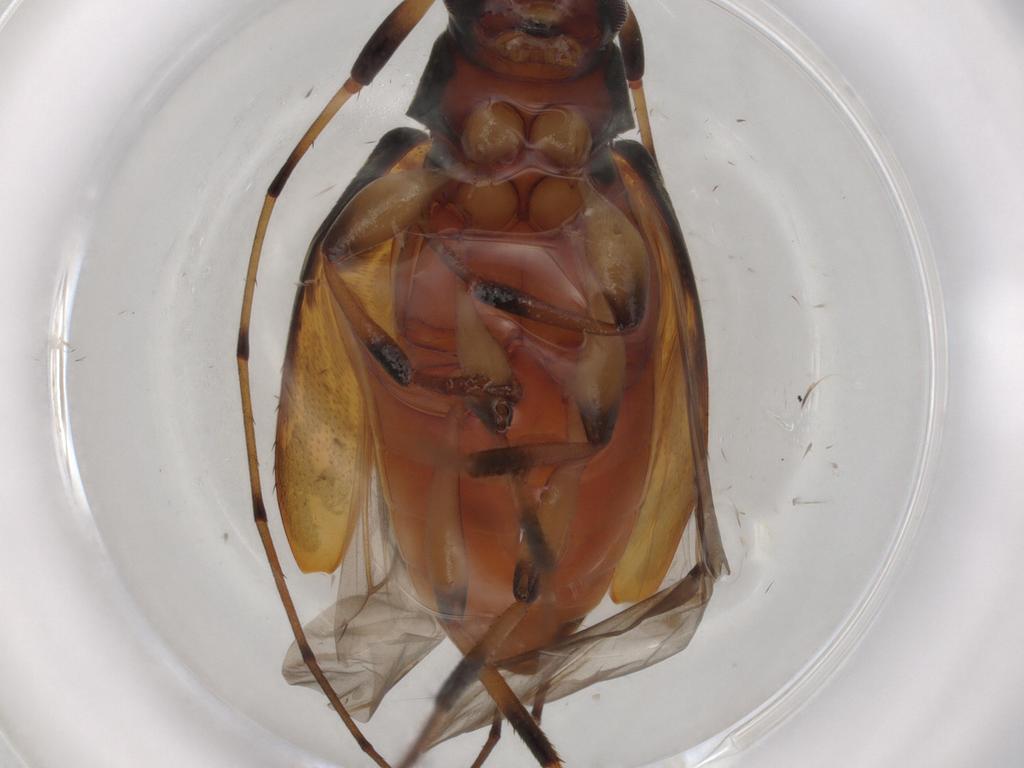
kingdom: Animalia
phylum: Arthropoda
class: Insecta
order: Coleoptera
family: Cerambycidae
